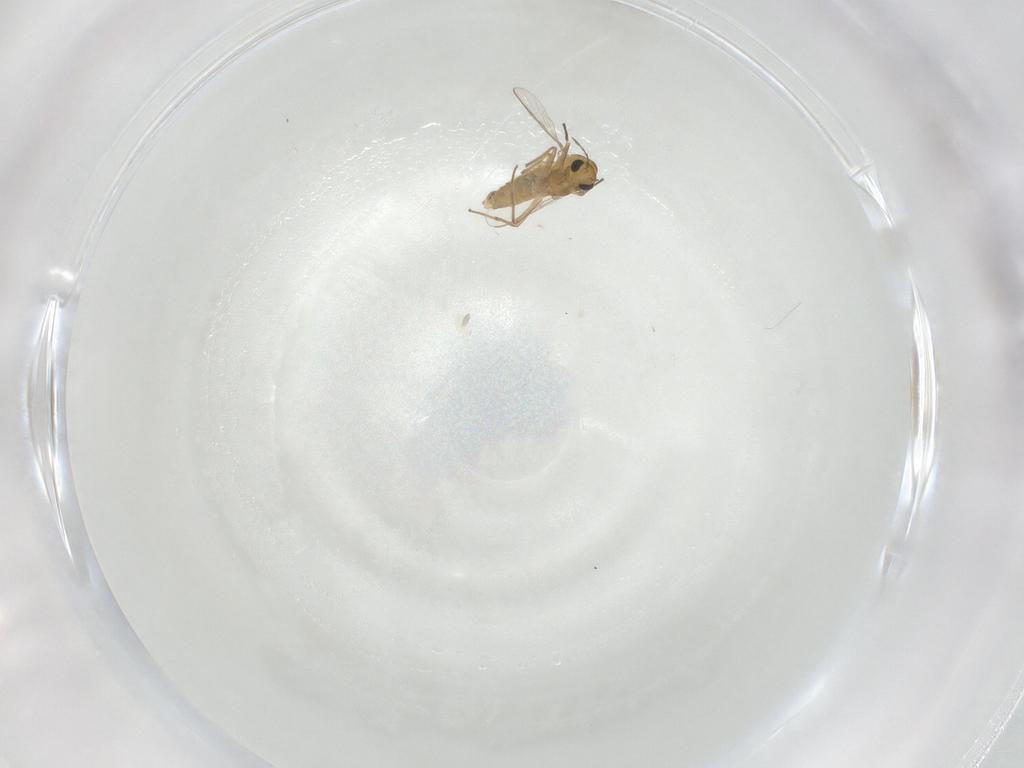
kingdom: Animalia
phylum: Arthropoda
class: Insecta
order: Diptera
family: Chironomidae
